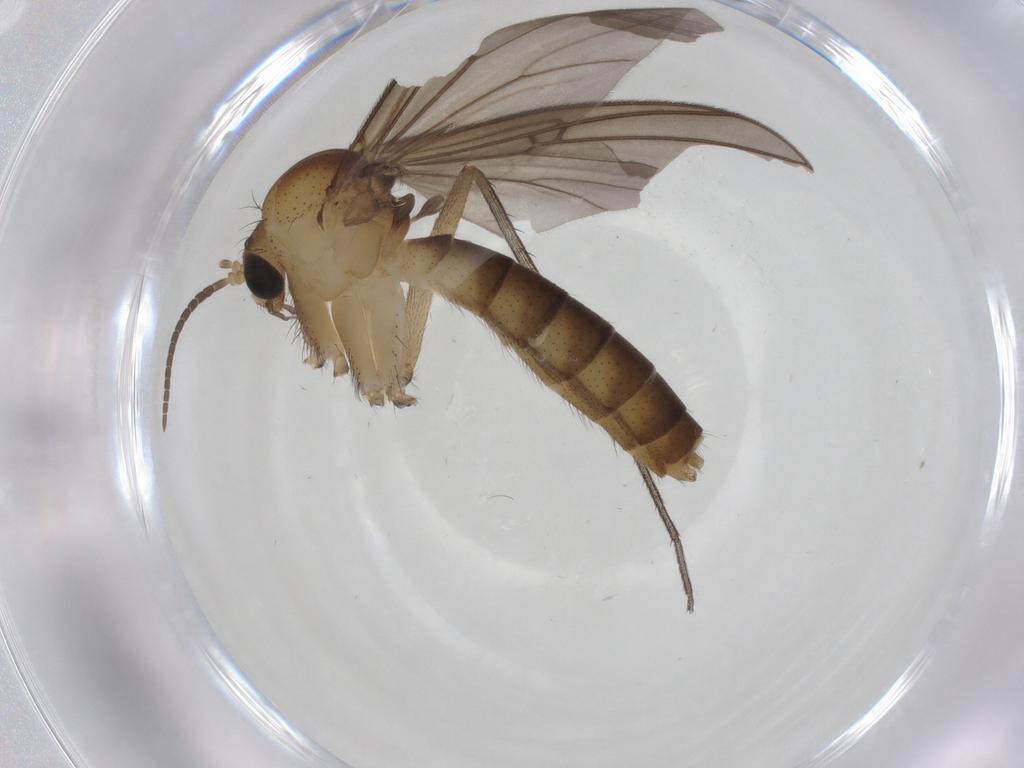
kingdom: Animalia
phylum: Arthropoda
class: Insecta
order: Diptera
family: Mycetophilidae
